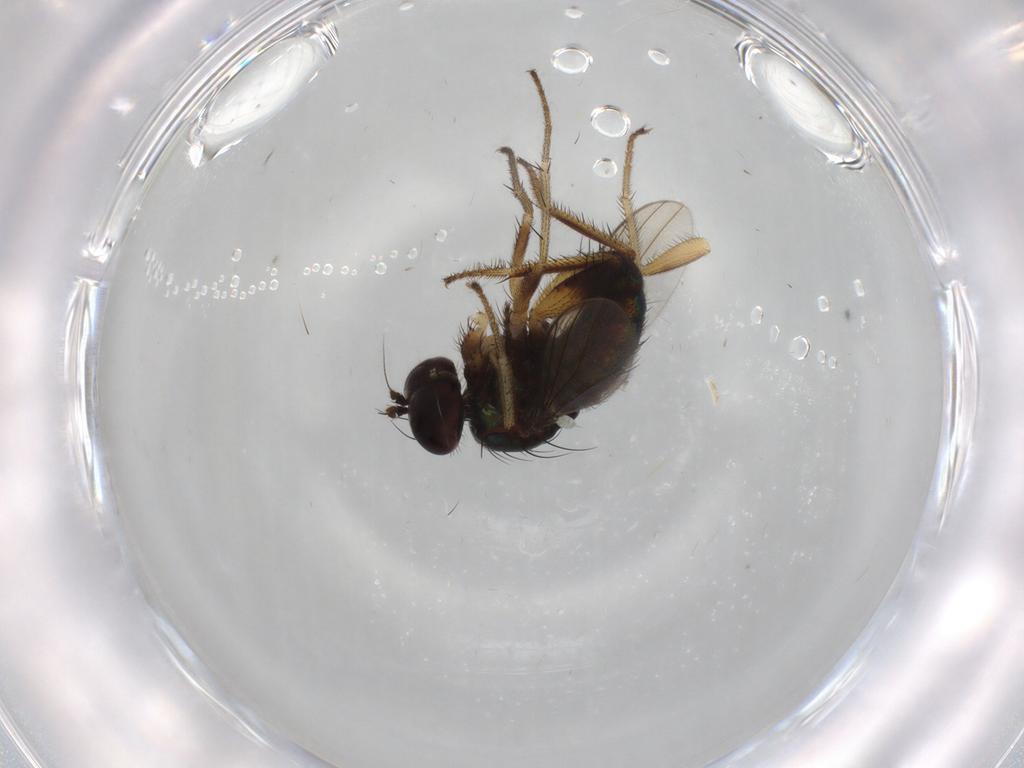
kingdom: Animalia
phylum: Arthropoda
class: Insecta
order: Diptera
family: Dolichopodidae
